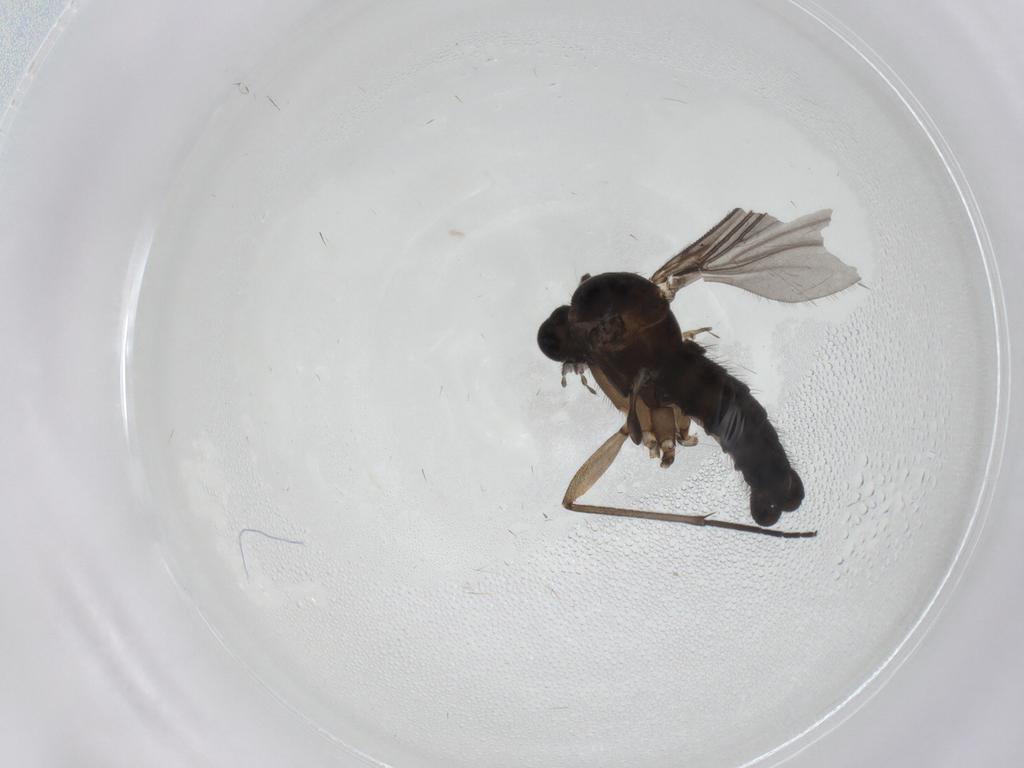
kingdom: Animalia
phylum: Arthropoda
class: Insecta
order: Diptera
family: Sciaridae
